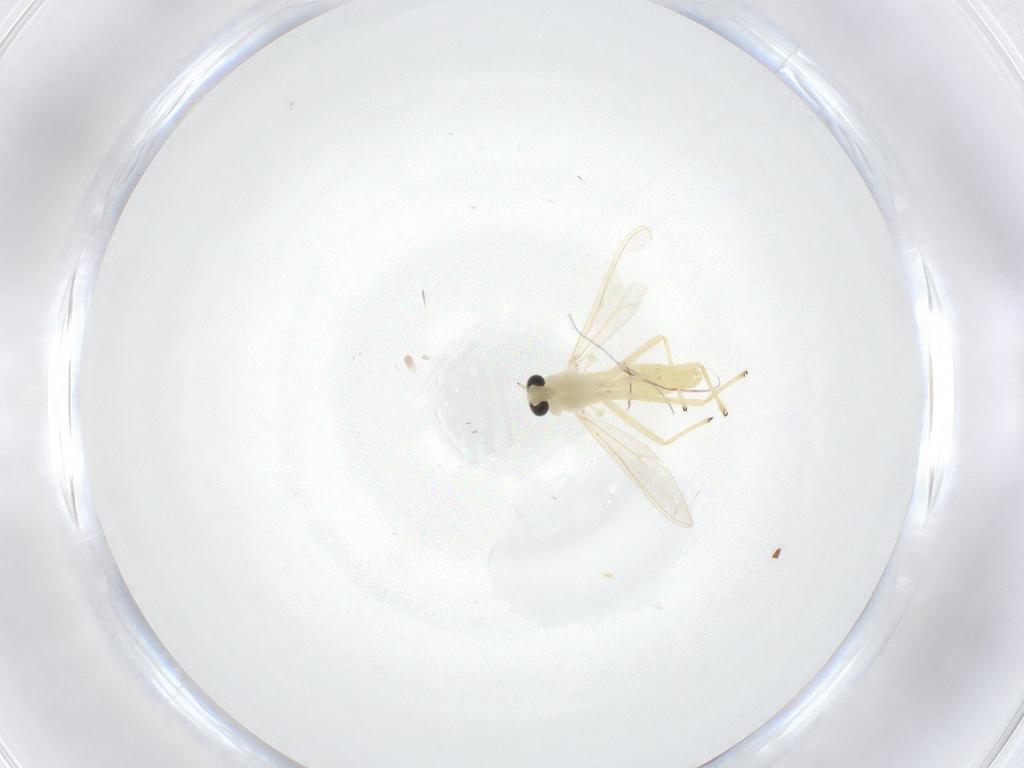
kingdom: Animalia
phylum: Arthropoda
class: Insecta
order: Diptera
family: Chironomidae
